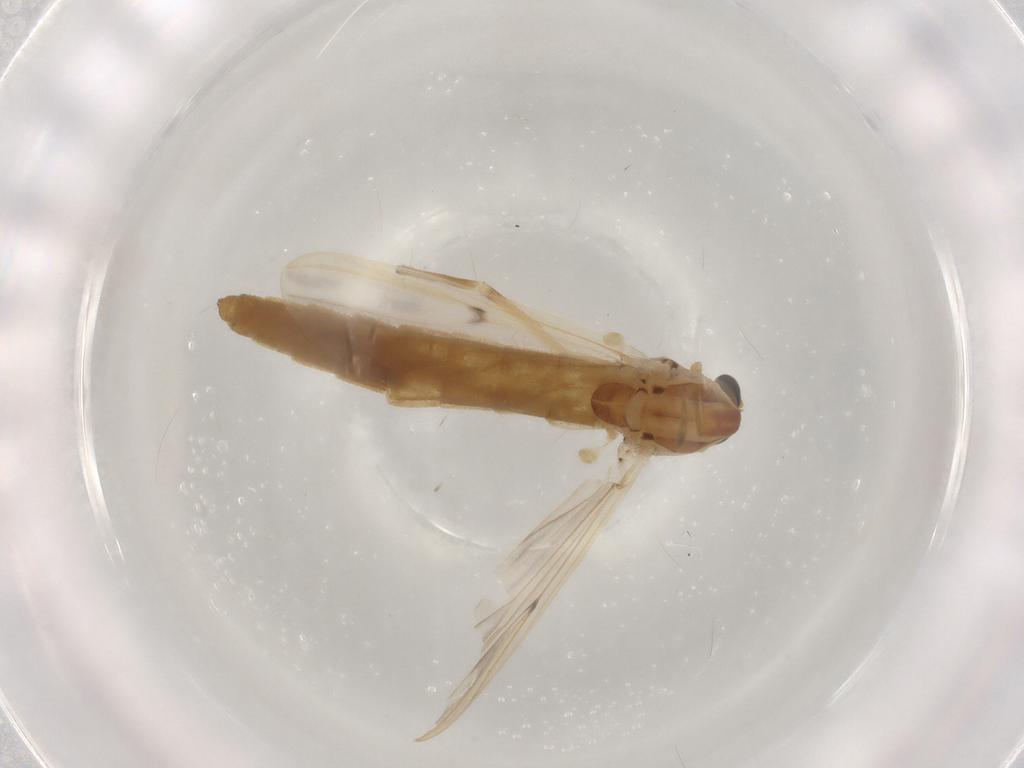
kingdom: Animalia
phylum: Arthropoda
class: Insecta
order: Diptera
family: Chironomidae
